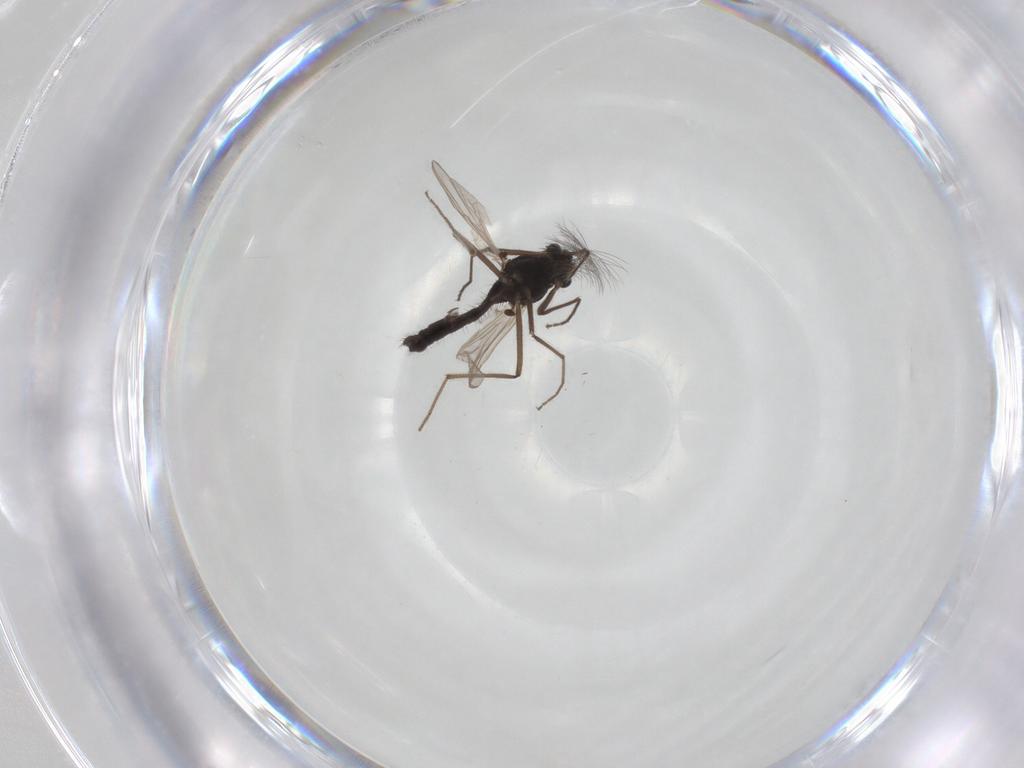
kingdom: Animalia
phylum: Arthropoda
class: Insecta
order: Diptera
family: Chironomidae
